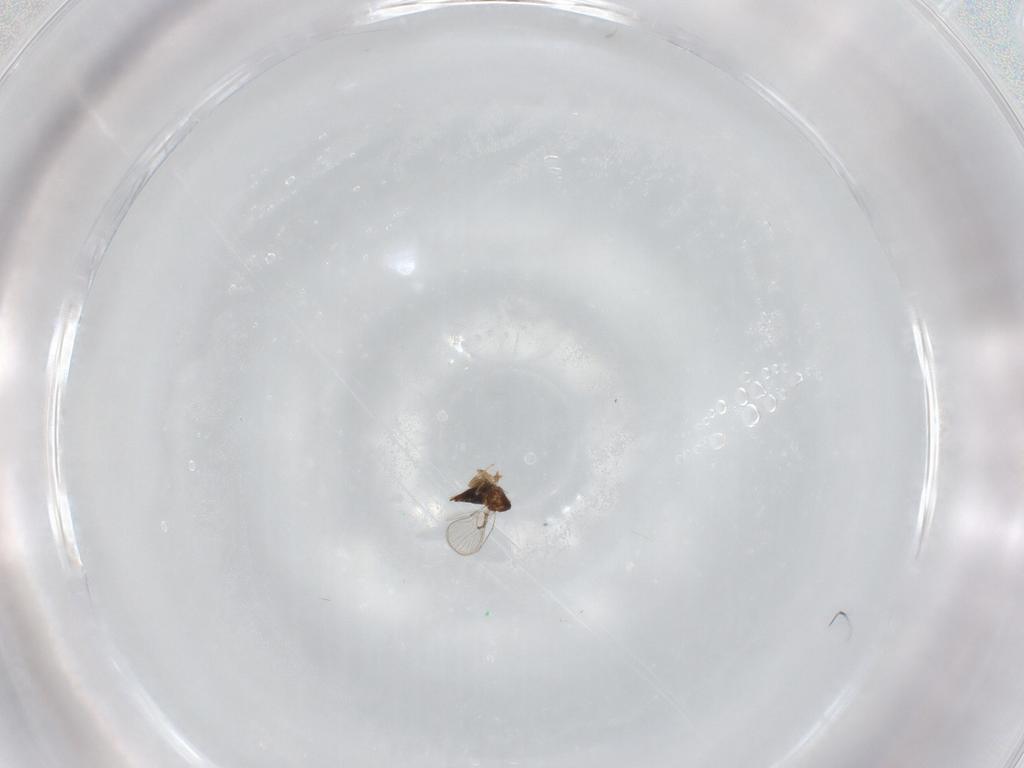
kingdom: Animalia
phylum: Arthropoda
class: Insecta
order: Hymenoptera
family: Trichogrammatidae
